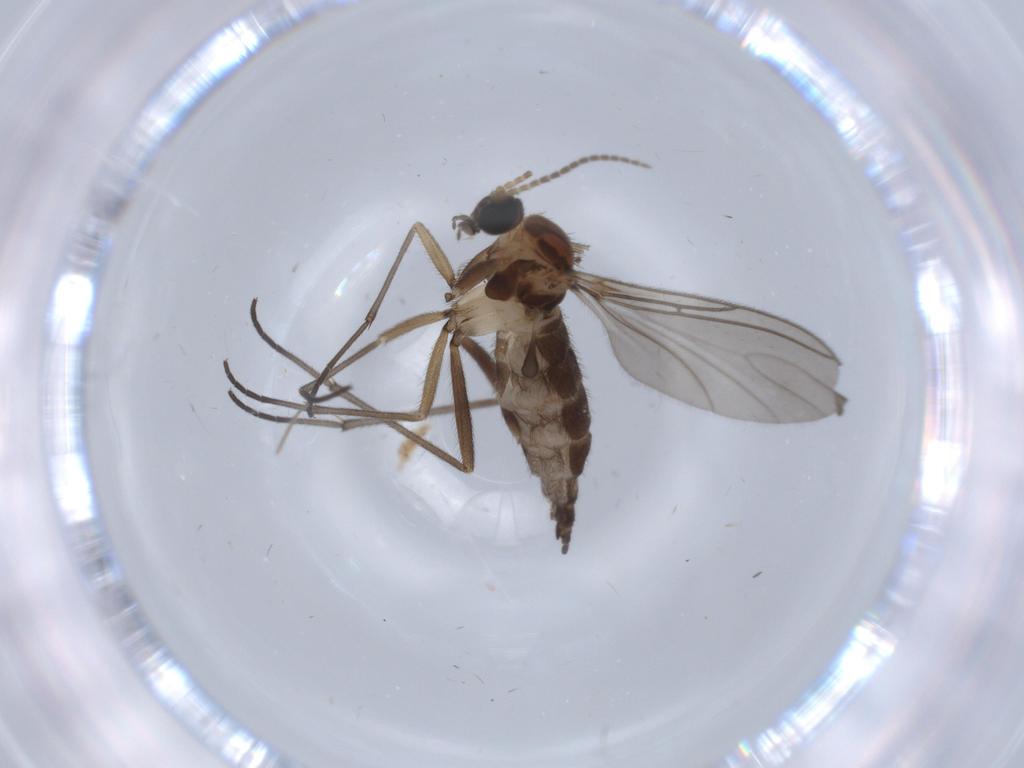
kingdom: Animalia
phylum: Arthropoda
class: Insecta
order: Diptera
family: Sciaridae
